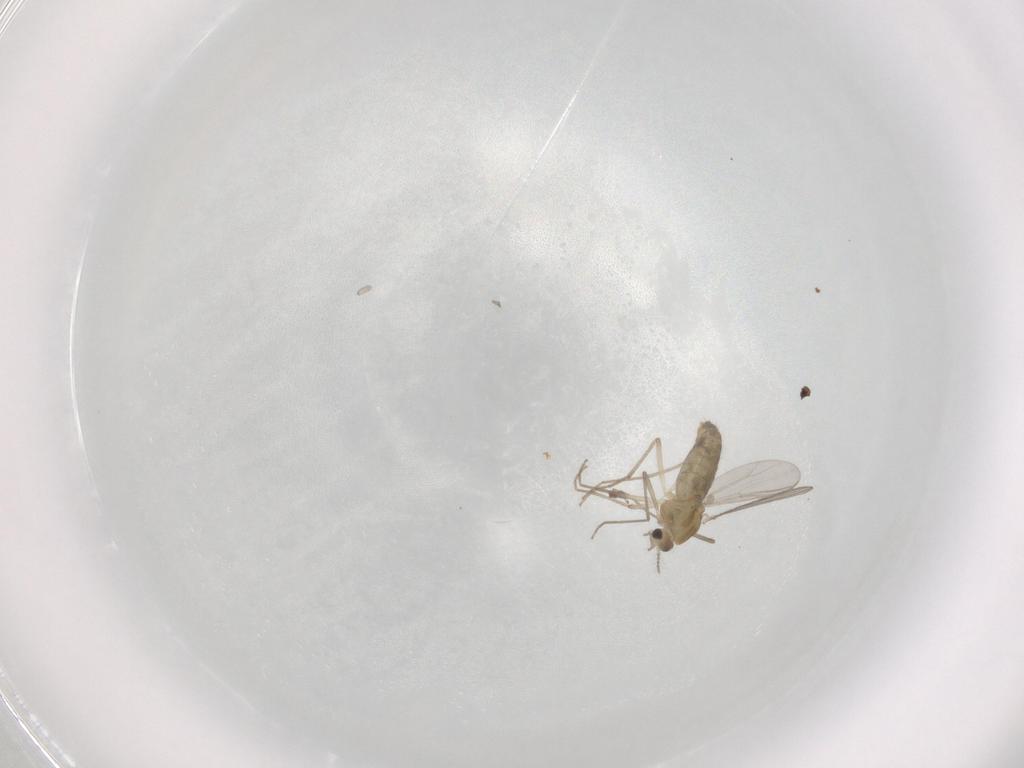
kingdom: Animalia
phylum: Arthropoda
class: Insecta
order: Diptera
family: Chironomidae
